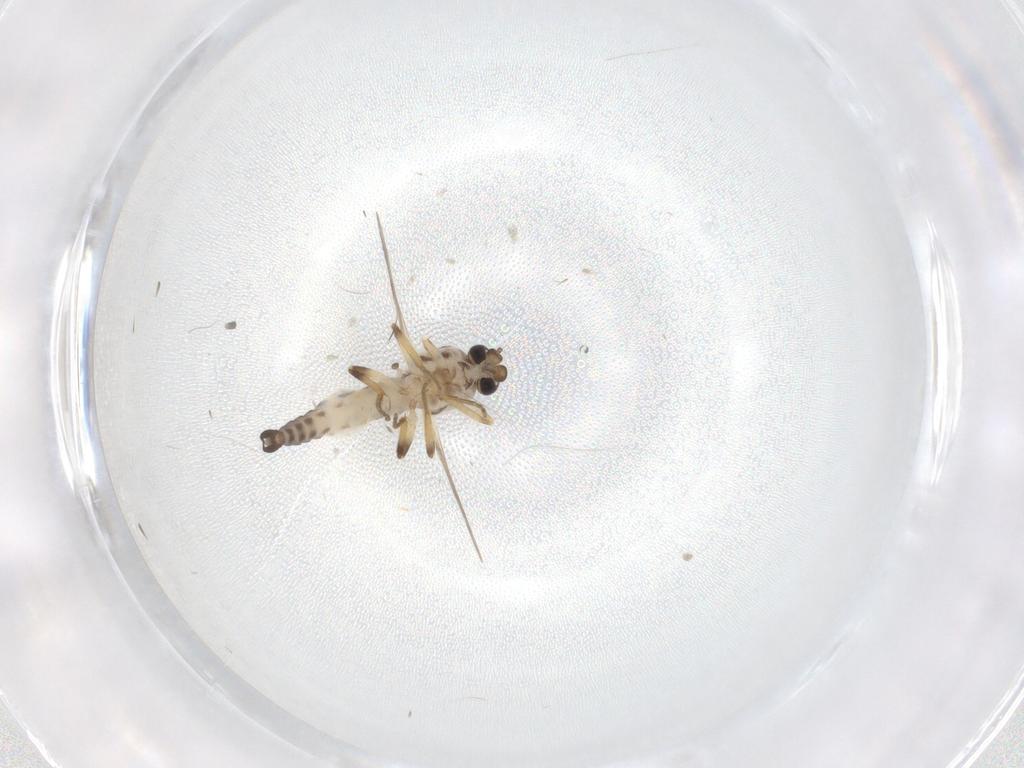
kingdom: Animalia
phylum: Arthropoda
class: Insecta
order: Diptera
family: Ceratopogonidae
